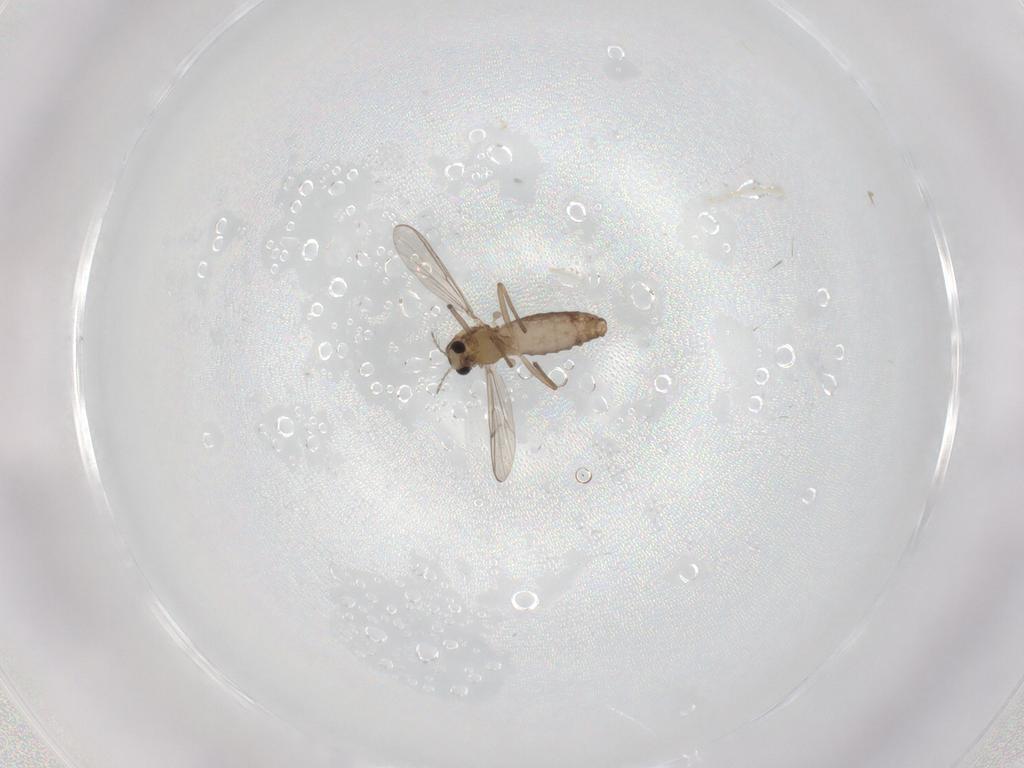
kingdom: Animalia
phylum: Arthropoda
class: Insecta
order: Diptera
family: Chironomidae
